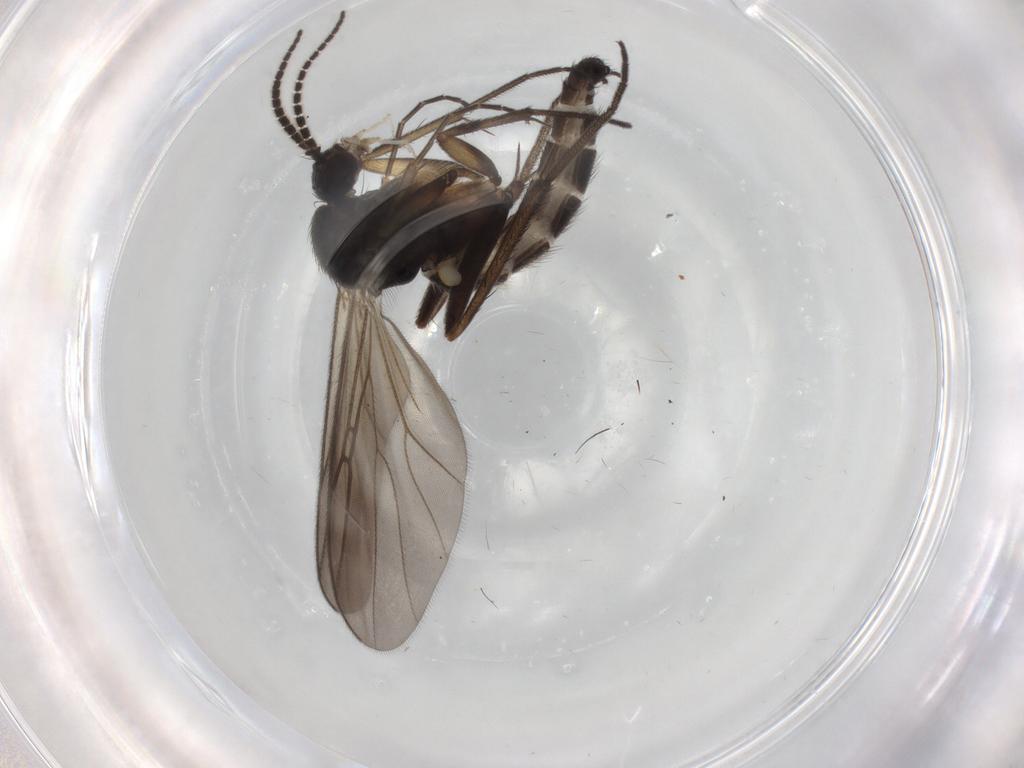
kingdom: Animalia
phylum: Arthropoda
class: Insecta
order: Diptera
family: Mycetophilidae
